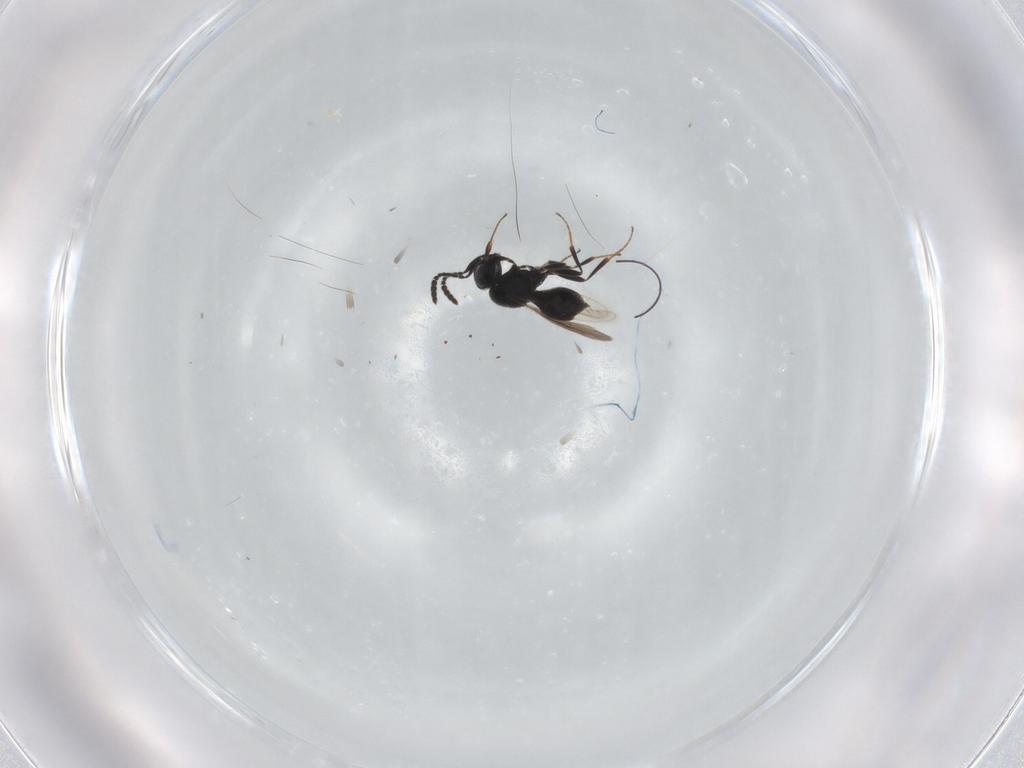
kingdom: Animalia
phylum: Arthropoda
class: Insecta
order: Hymenoptera
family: Scelionidae
